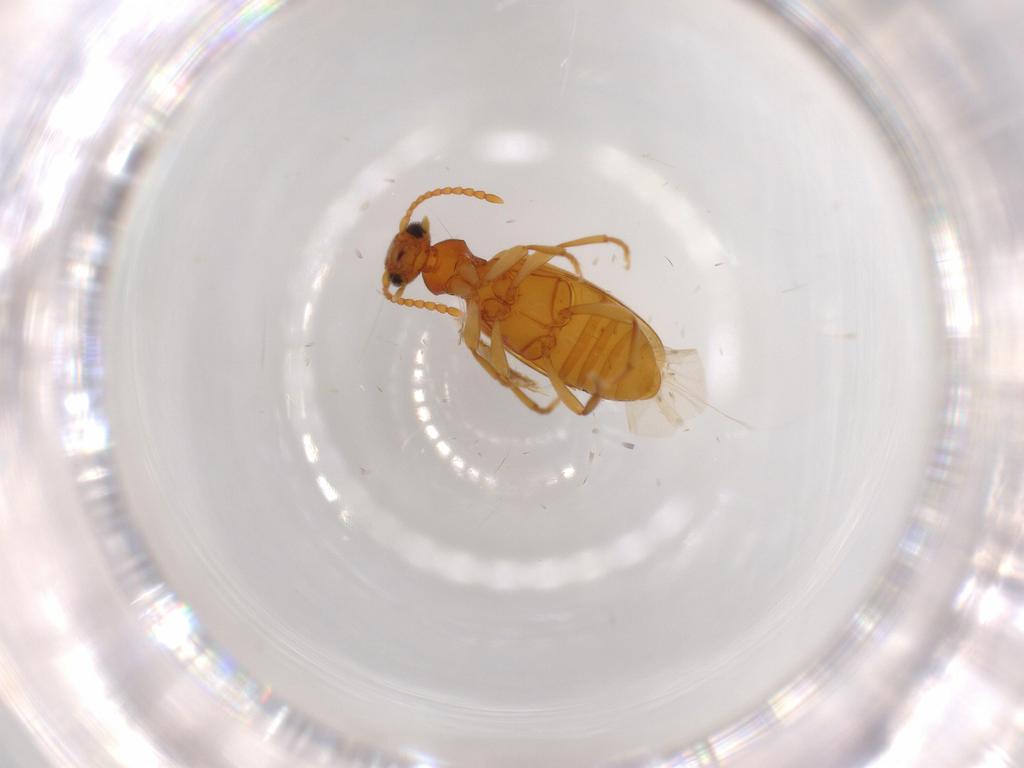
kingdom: Animalia
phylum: Arthropoda
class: Insecta
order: Coleoptera
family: Anthicidae
